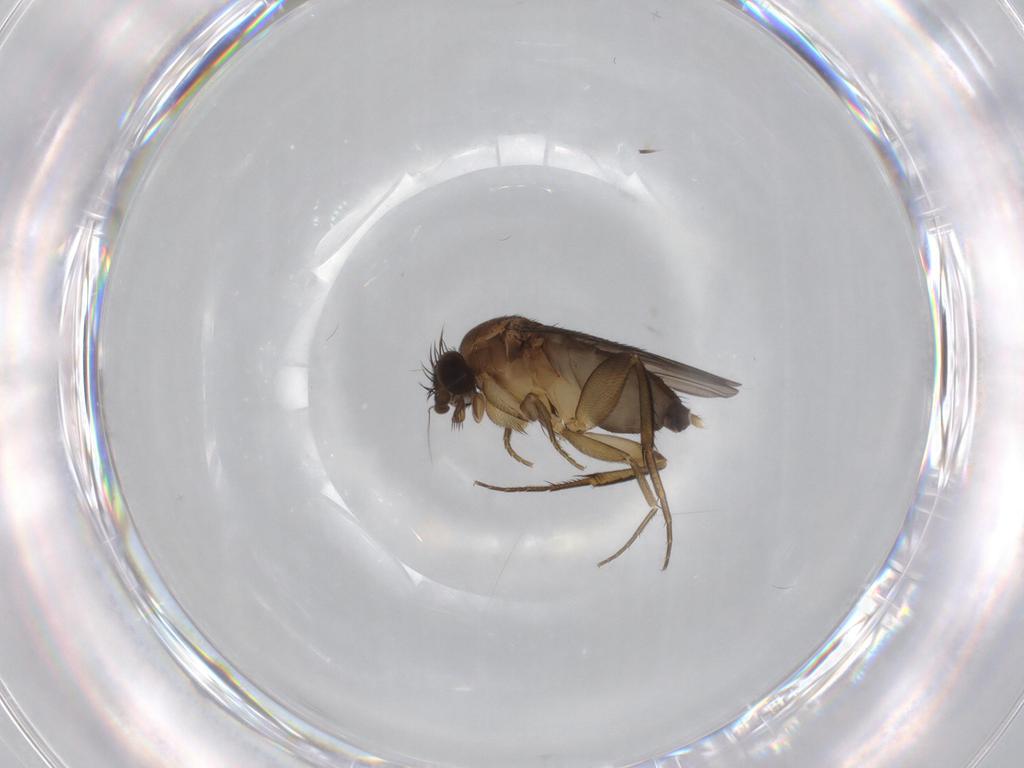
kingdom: Animalia
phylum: Arthropoda
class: Insecta
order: Diptera
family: Phoridae
